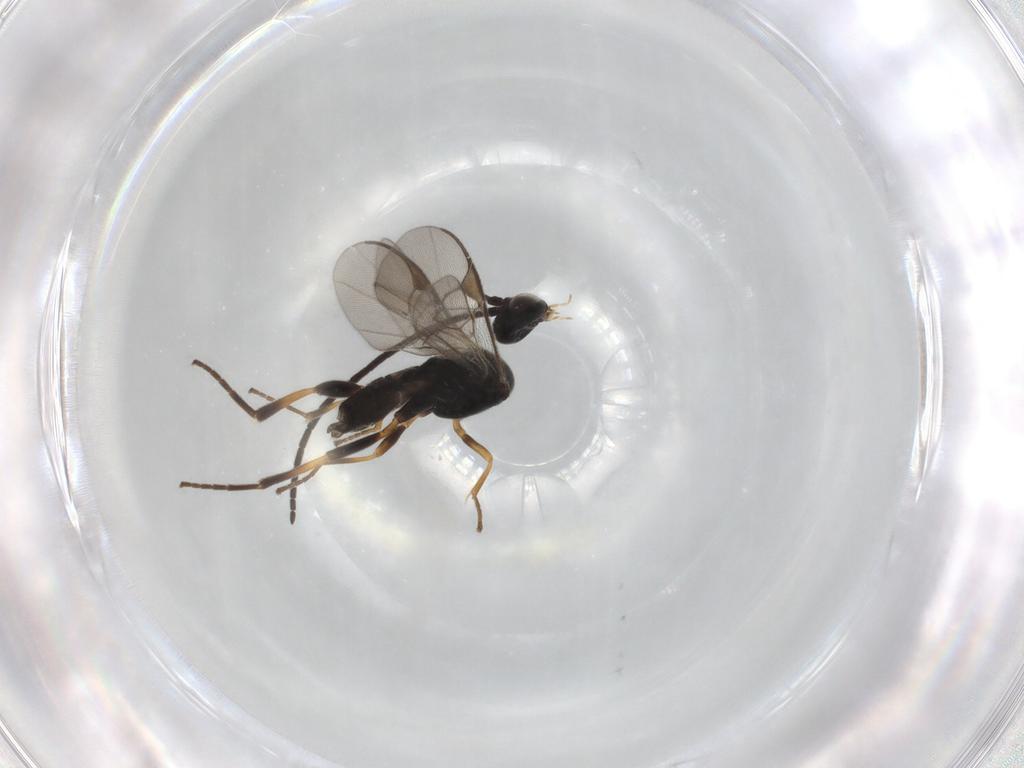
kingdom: Animalia
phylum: Arthropoda
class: Insecta
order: Hymenoptera
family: Braconidae
